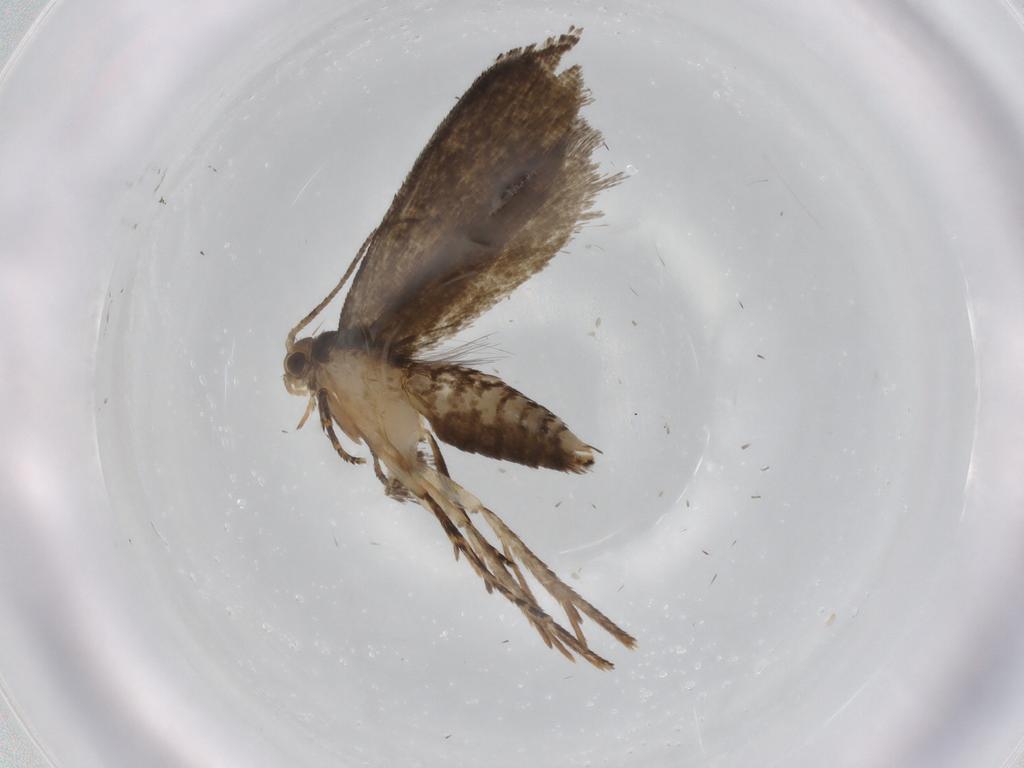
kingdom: Animalia
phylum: Arthropoda
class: Insecta
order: Lepidoptera
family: Crambidae
